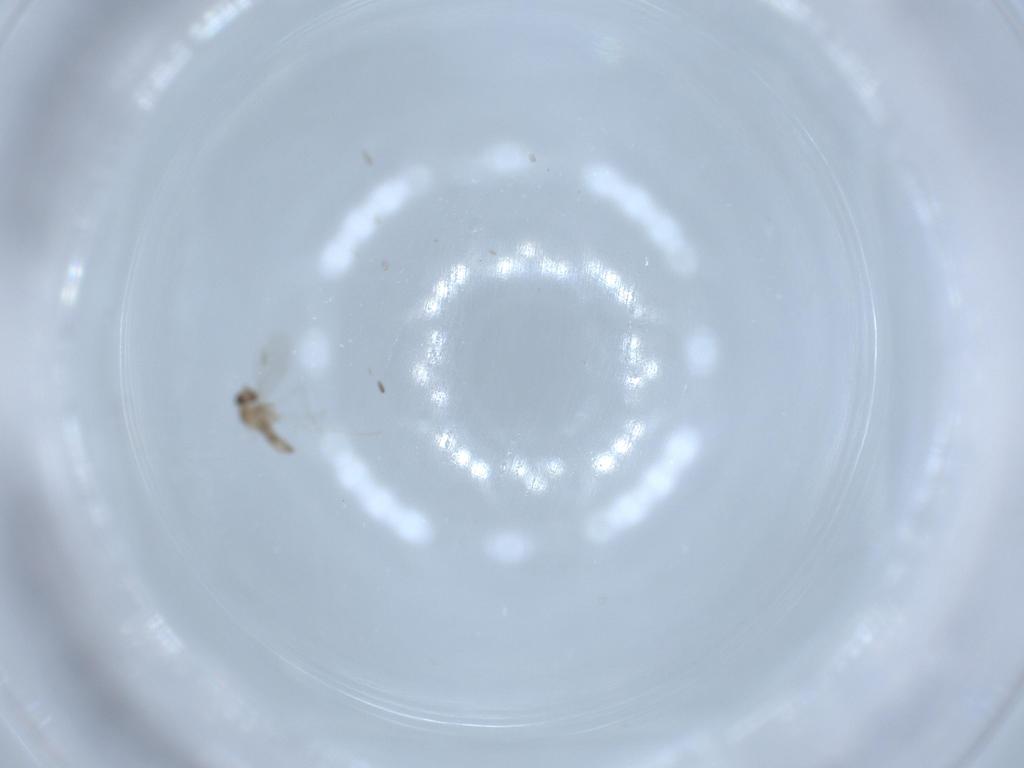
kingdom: Animalia
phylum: Arthropoda
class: Insecta
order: Diptera
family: Cecidomyiidae
